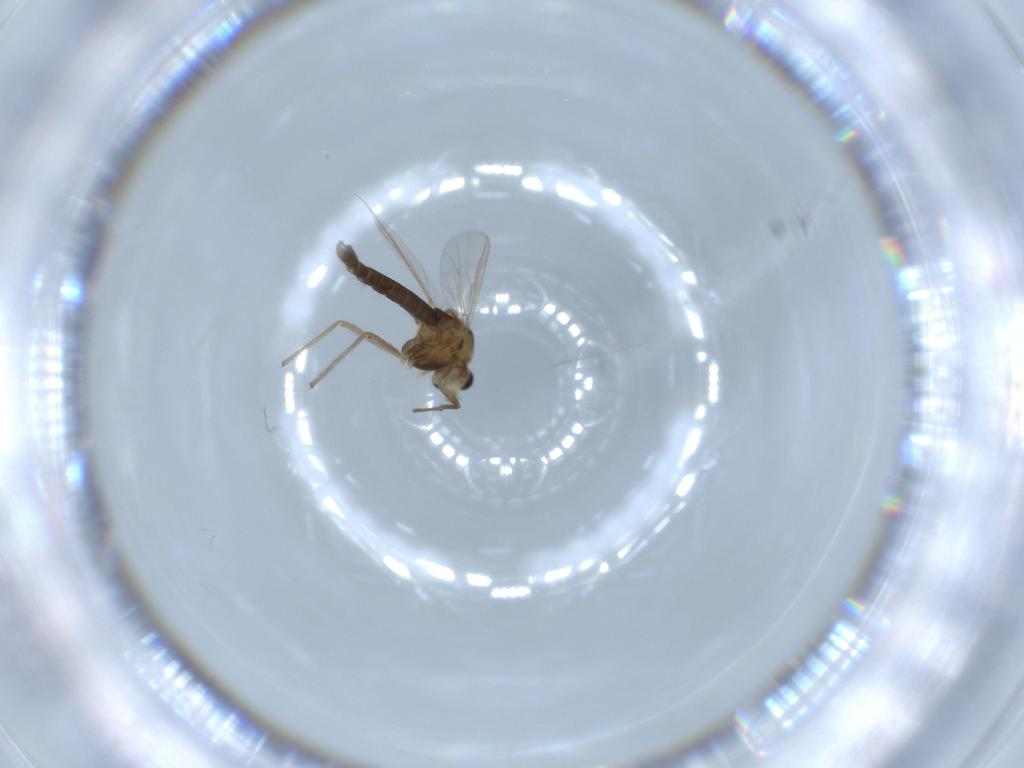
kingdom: Animalia
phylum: Arthropoda
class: Insecta
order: Diptera
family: Chironomidae
